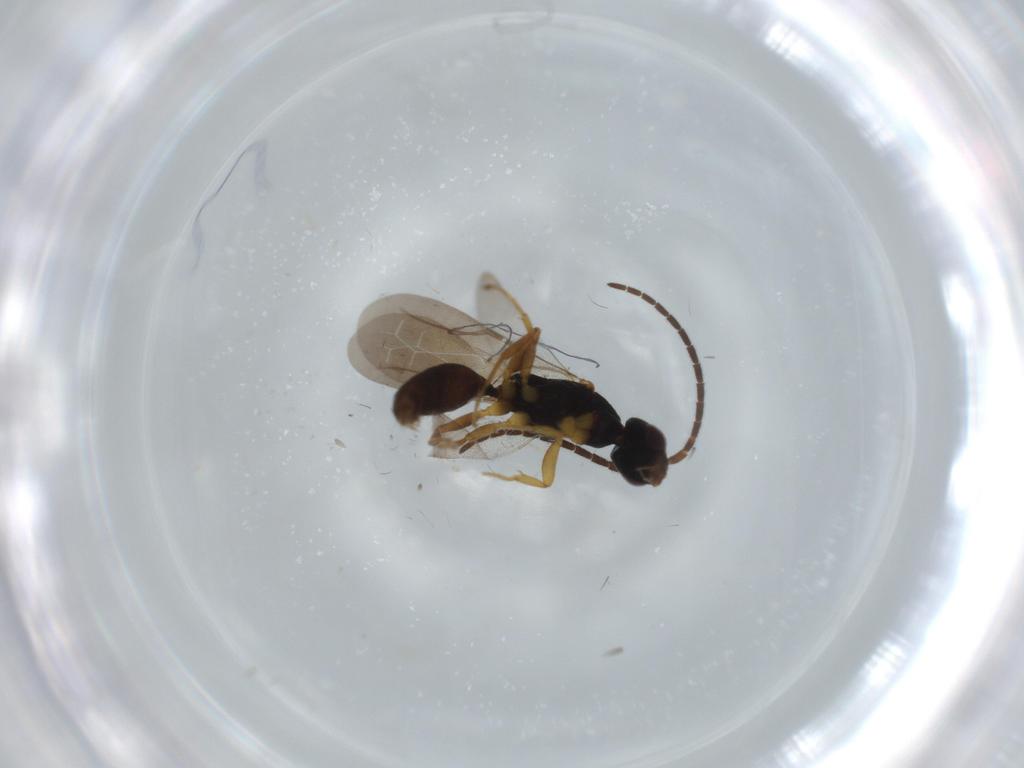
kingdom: Animalia
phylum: Arthropoda
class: Insecta
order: Hymenoptera
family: Bethylidae
